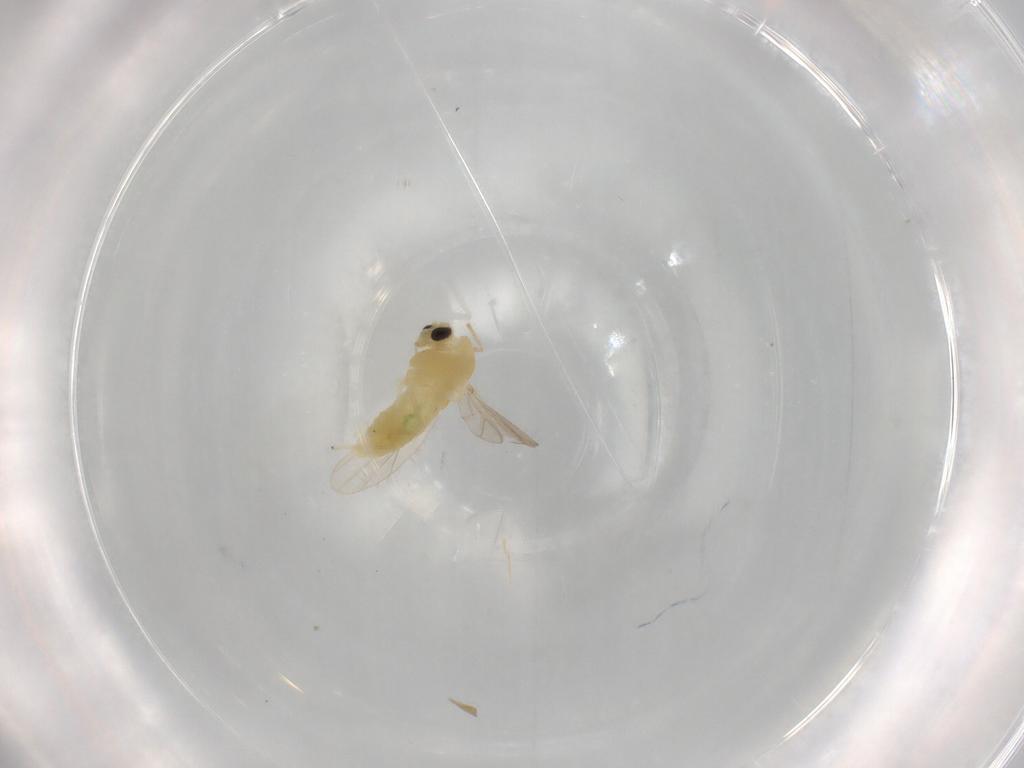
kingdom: Animalia
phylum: Arthropoda
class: Insecta
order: Diptera
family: Chironomidae
